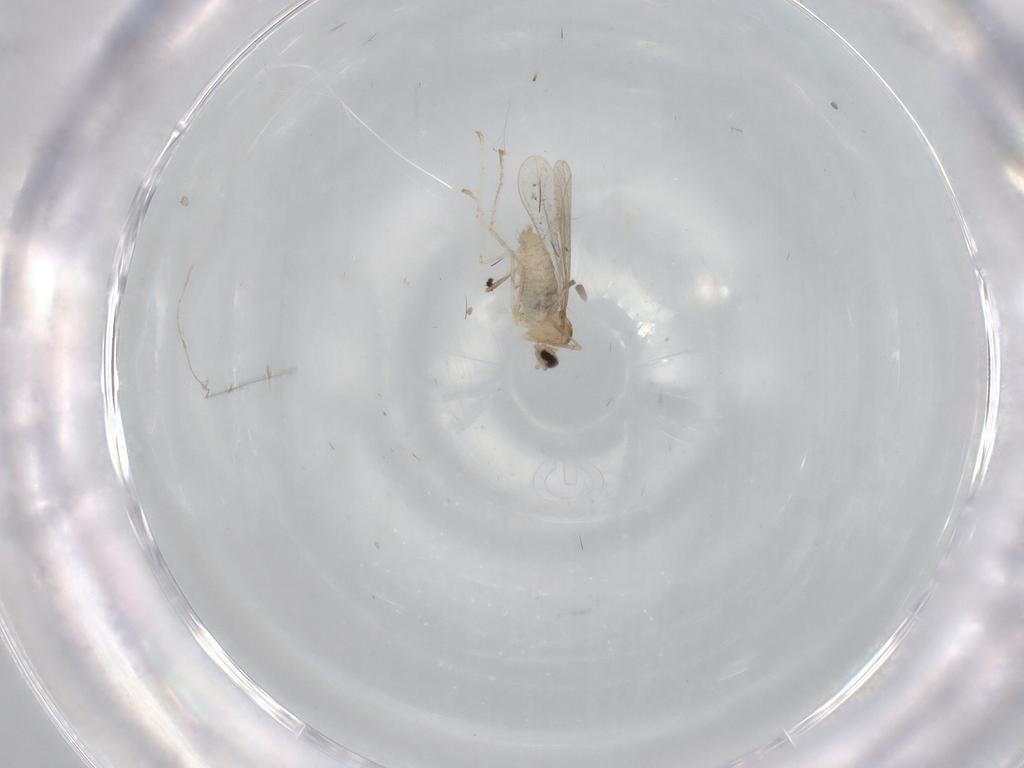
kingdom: Animalia
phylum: Arthropoda
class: Insecta
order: Diptera
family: Cecidomyiidae
